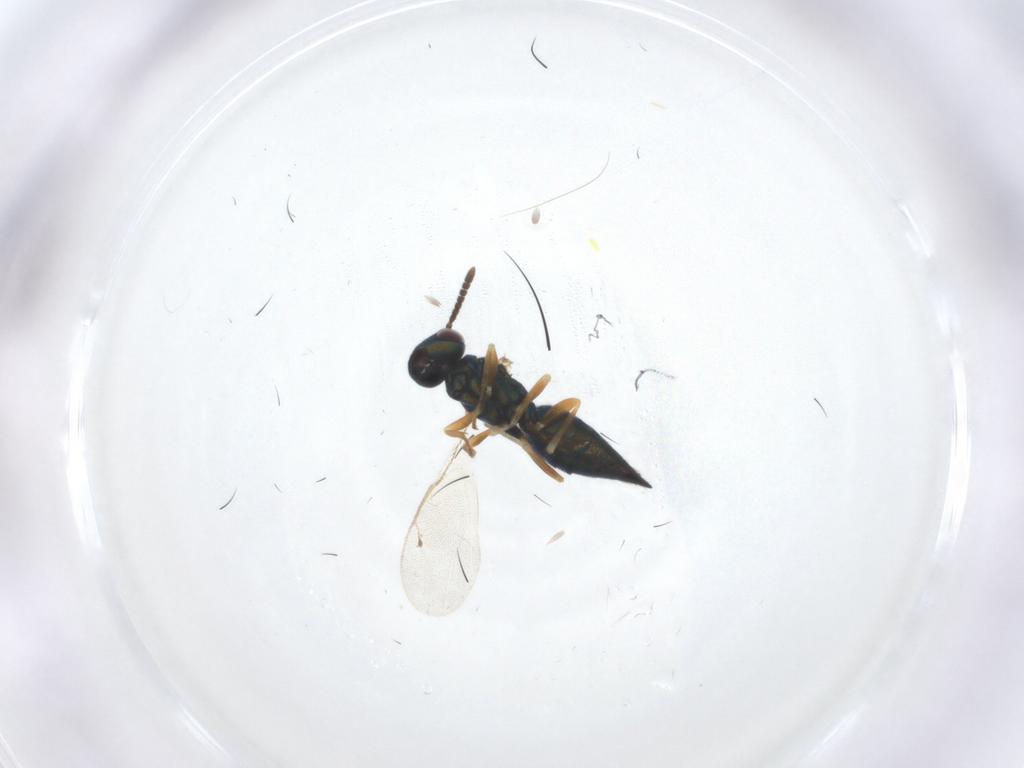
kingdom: Animalia
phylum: Arthropoda
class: Insecta
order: Hymenoptera
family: Pteromalidae
